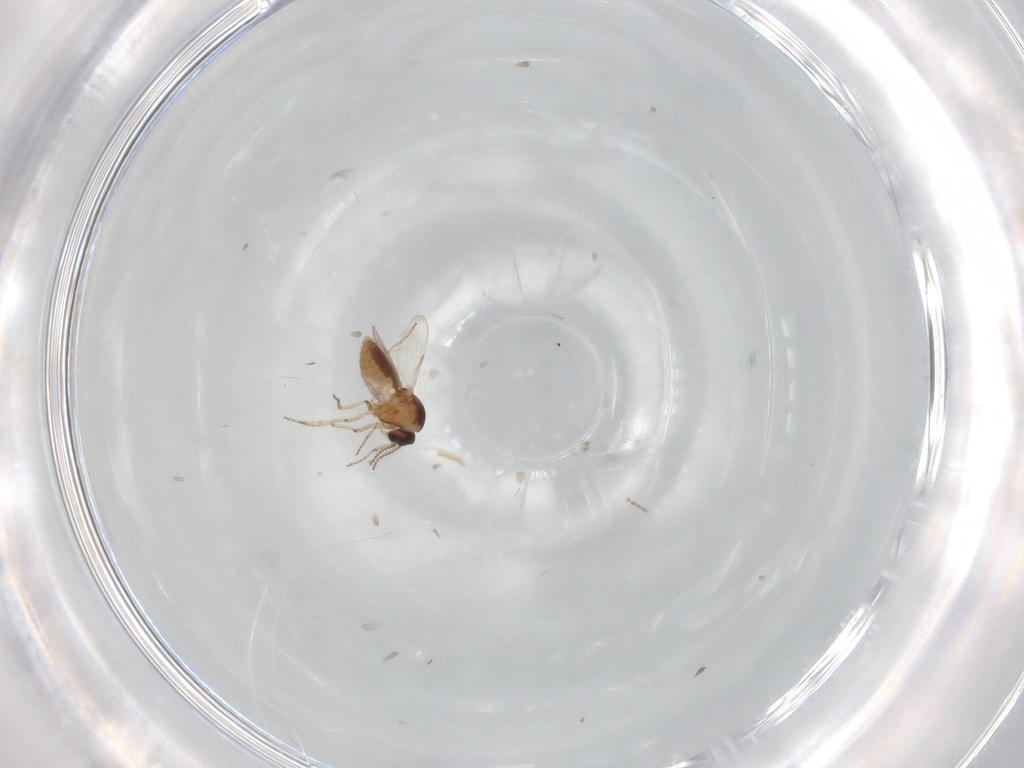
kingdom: Animalia
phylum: Arthropoda
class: Insecta
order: Diptera
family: Cecidomyiidae
